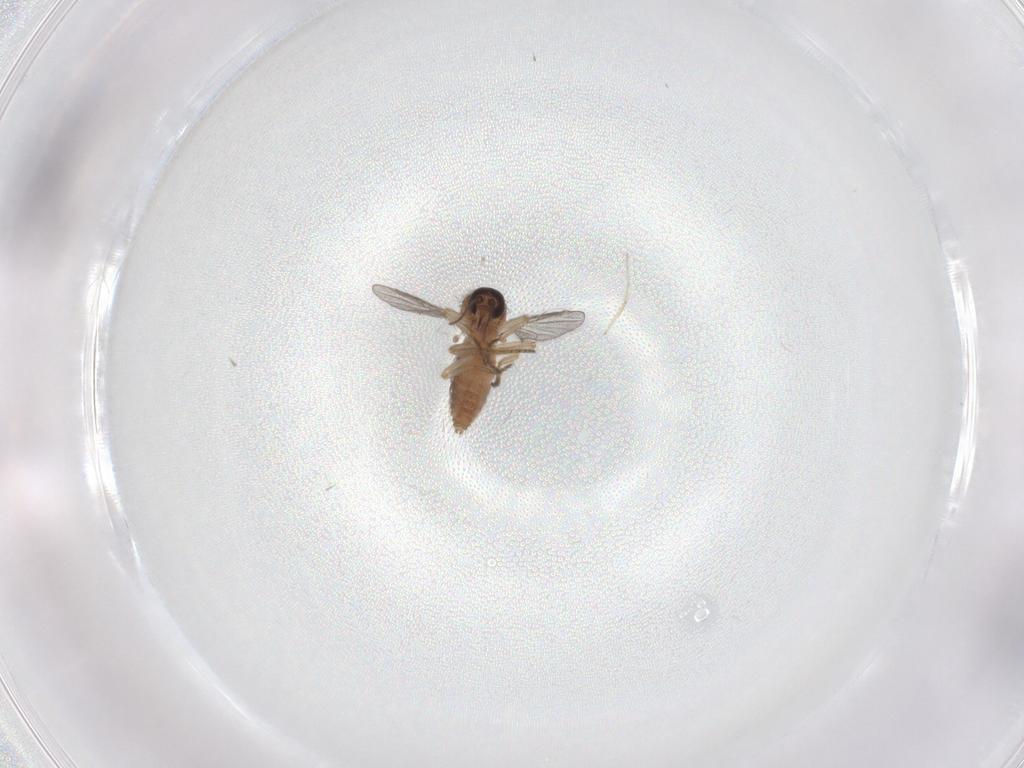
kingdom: Animalia
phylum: Arthropoda
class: Insecta
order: Diptera
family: Ceratopogonidae
